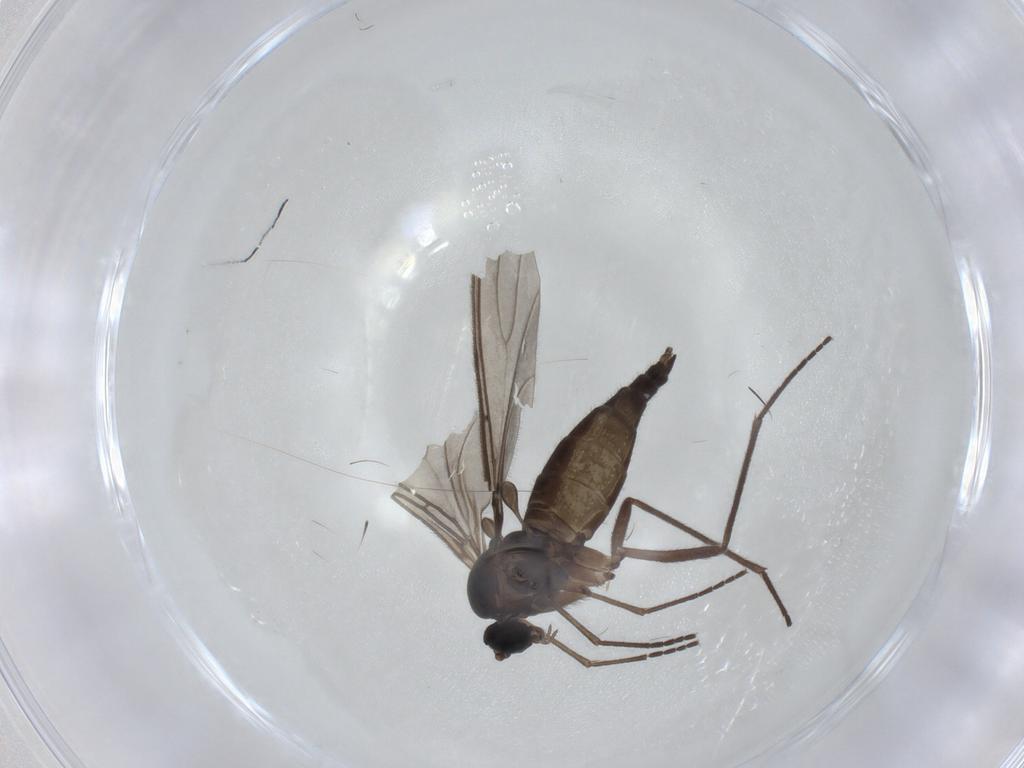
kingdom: Animalia
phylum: Arthropoda
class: Insecta
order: Diptera
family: Sciaridae
